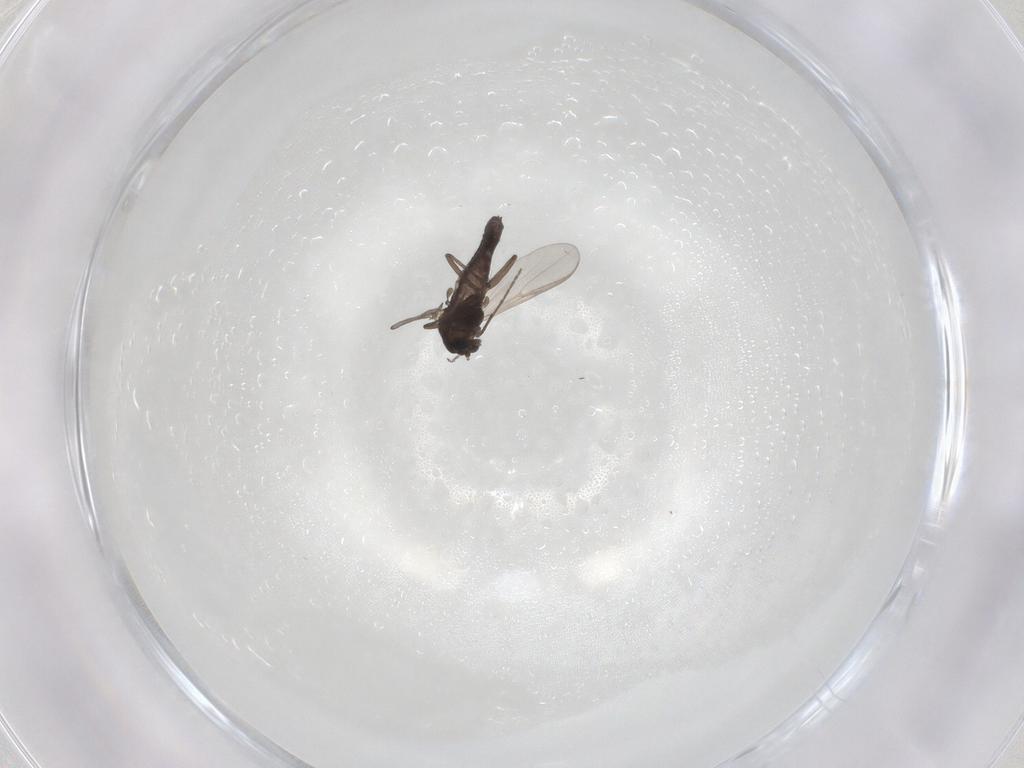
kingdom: Animalia
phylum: Arthropoda
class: Insecta
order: Diptera
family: Chironomidae
